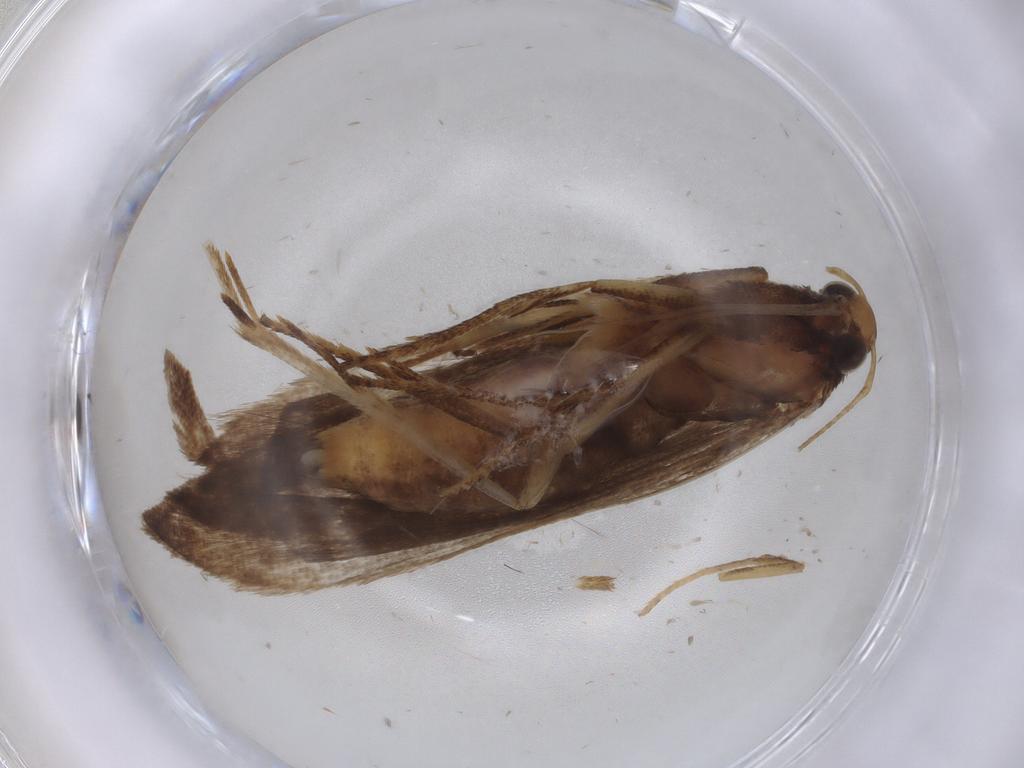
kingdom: Animalia
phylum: Arthropoda
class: Insecta
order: Lepidoptera
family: Gelechiidae
